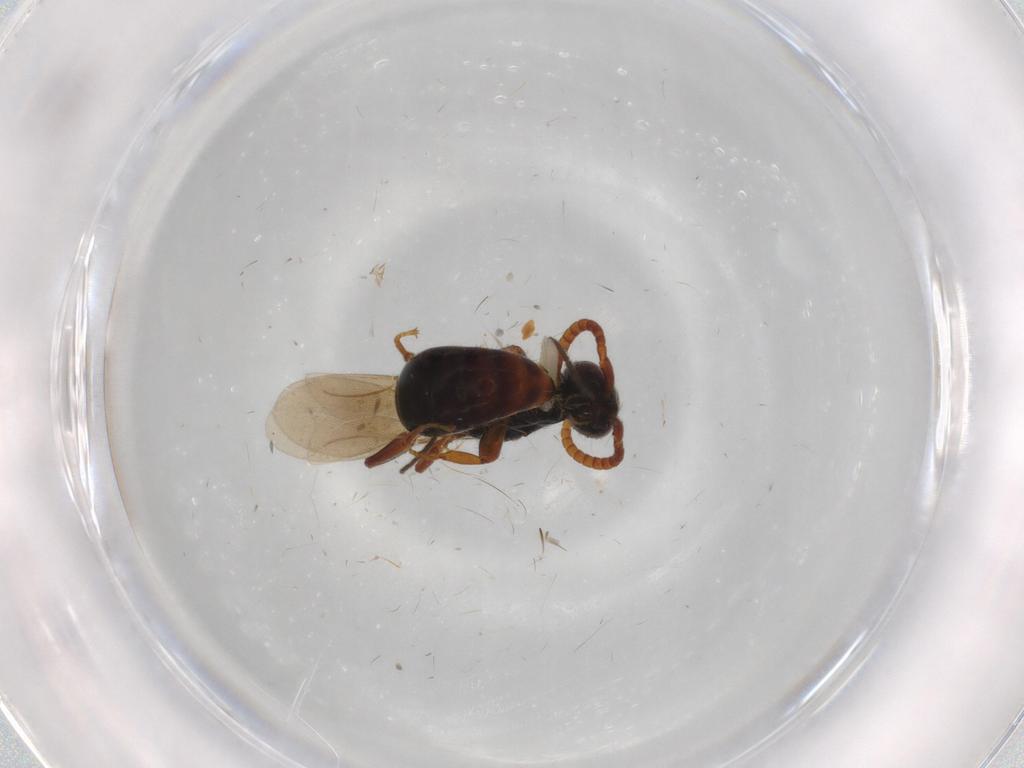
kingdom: Animalia
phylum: Arthropoda
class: Insecta
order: Hymenoptera
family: Bethylidae
